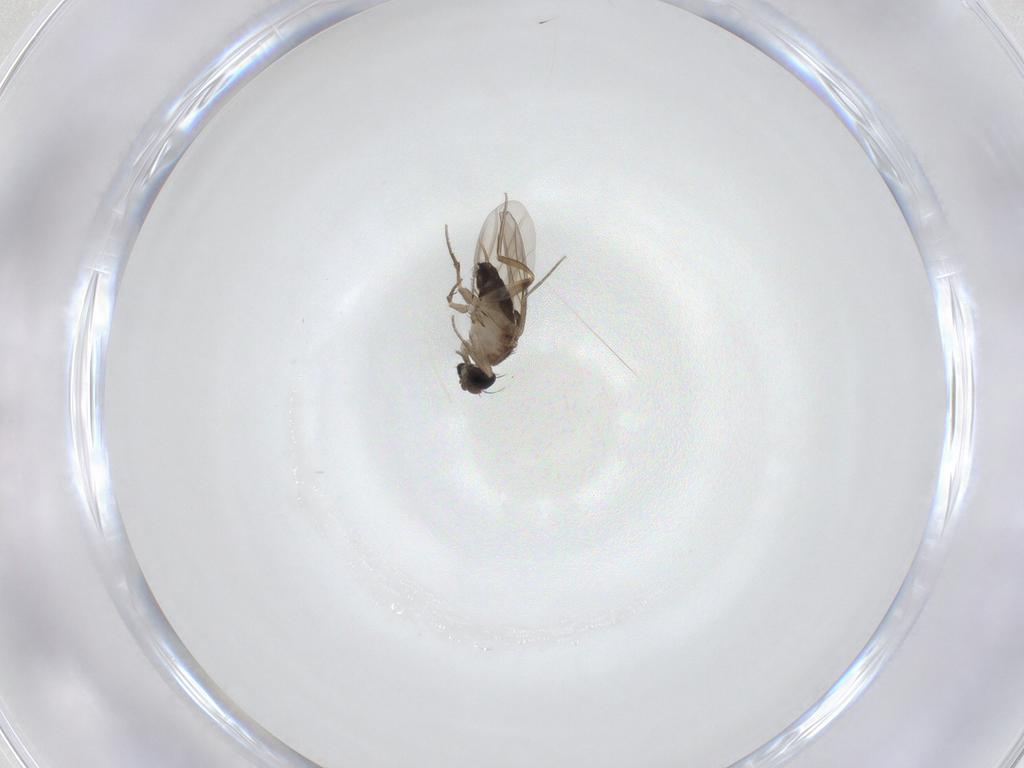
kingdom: Animalia
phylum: Arthropoda
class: Insecta
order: Diptera
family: Phoridae
